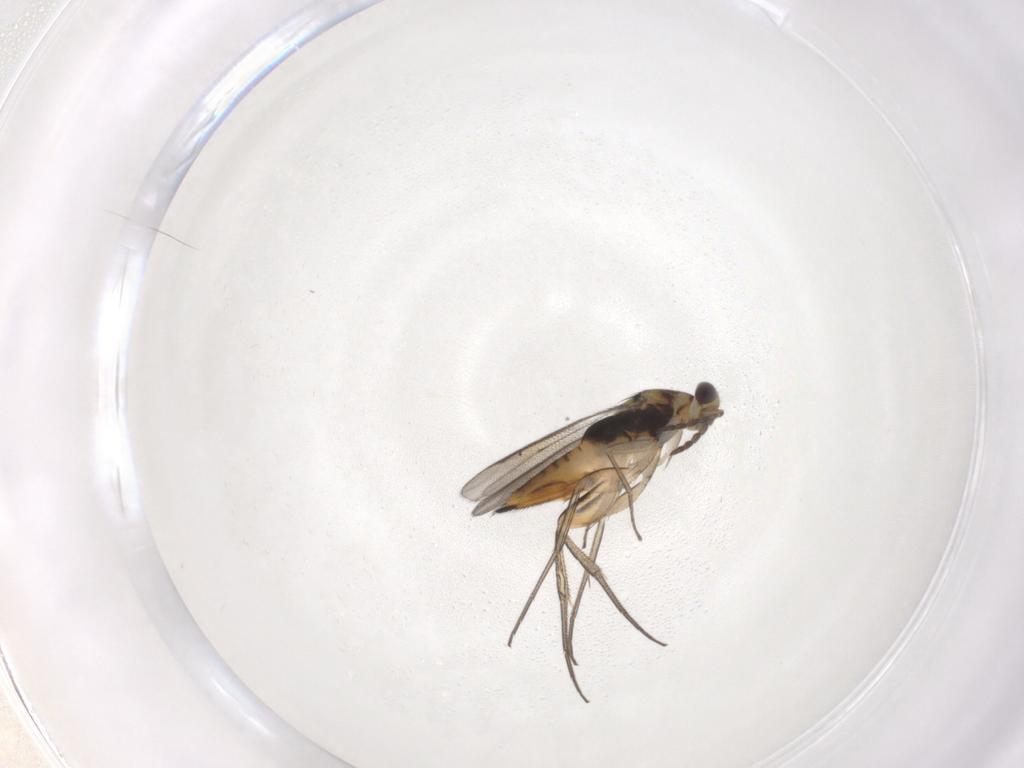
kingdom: Animalia
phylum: Arthropoda
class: Insecta
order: Hymenoptera
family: Eulophidae
